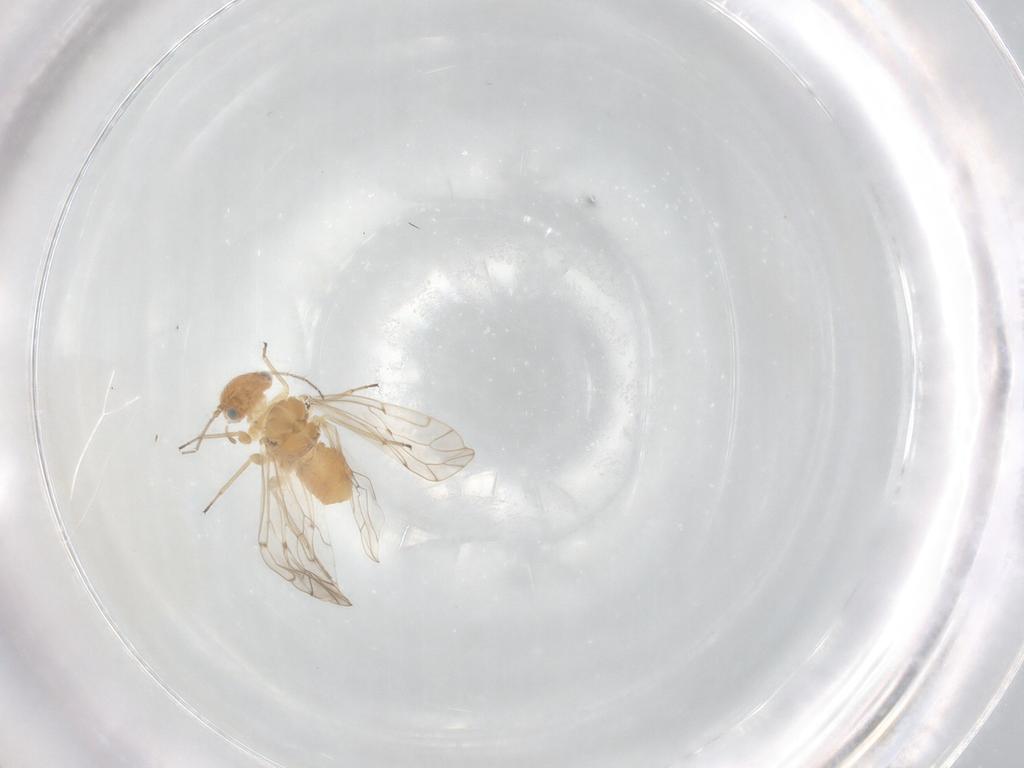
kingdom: Animalia
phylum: Arthropoda
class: Insecta
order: Psocodea
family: Ectopsocidae
